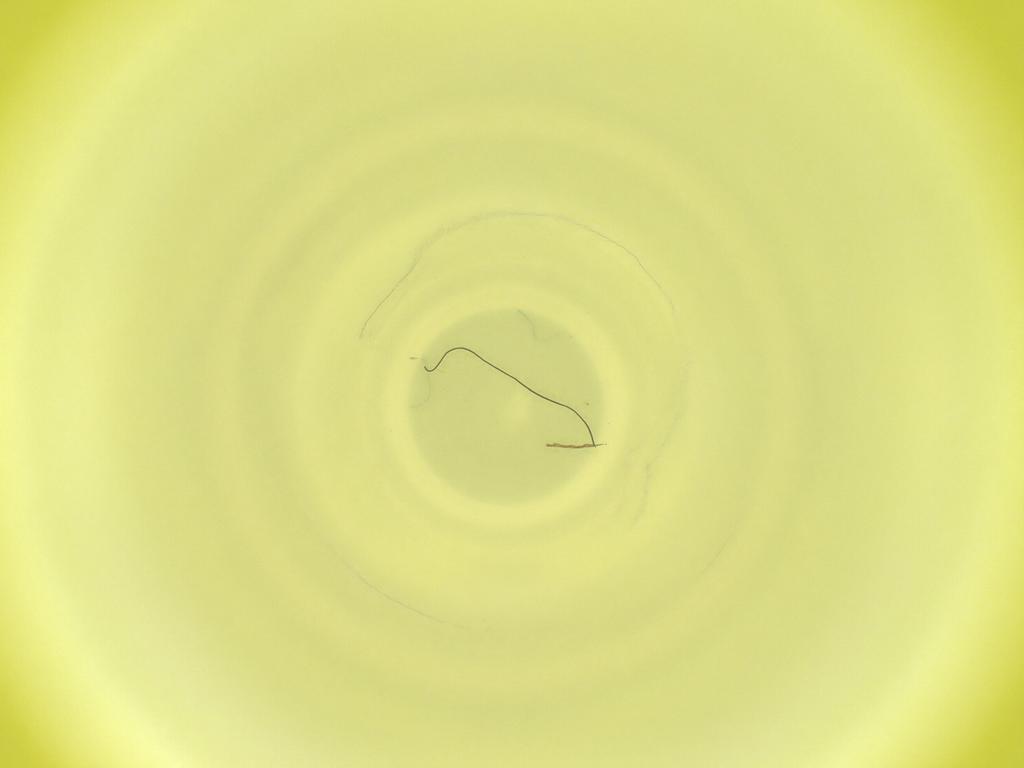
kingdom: Animalia
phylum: Arthropoda
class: Insecta
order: Diptera
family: Cecidomyiidae
